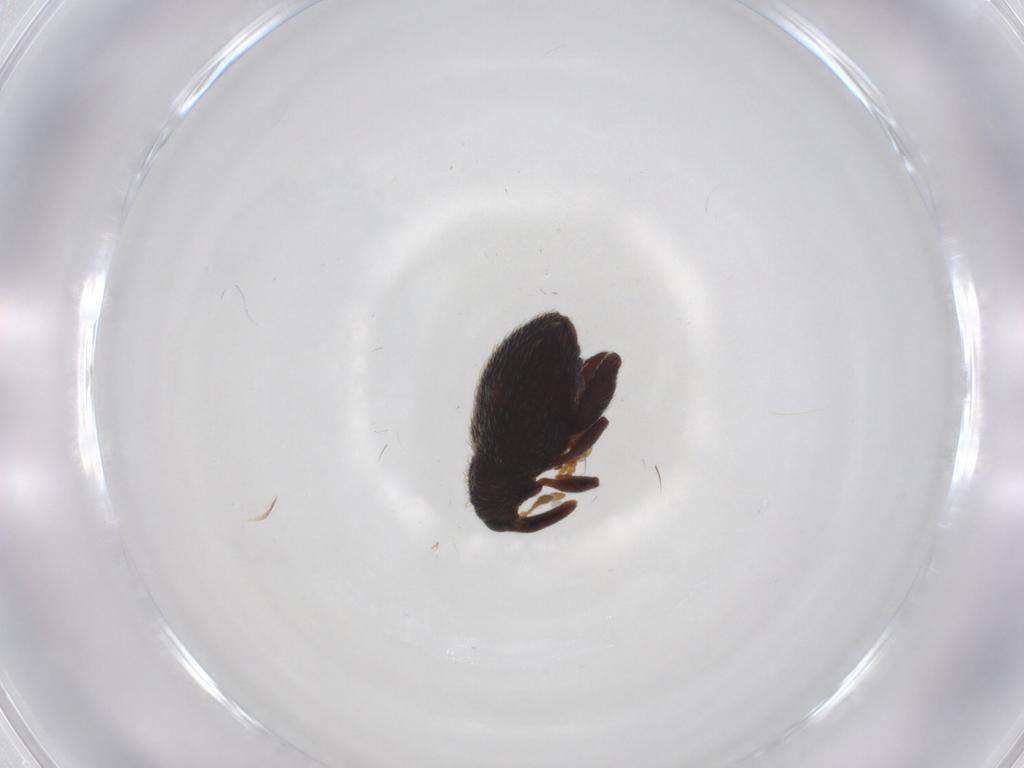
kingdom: Animalia
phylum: Arthropoda
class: Insecta
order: Coleoptera
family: Curculionidae
